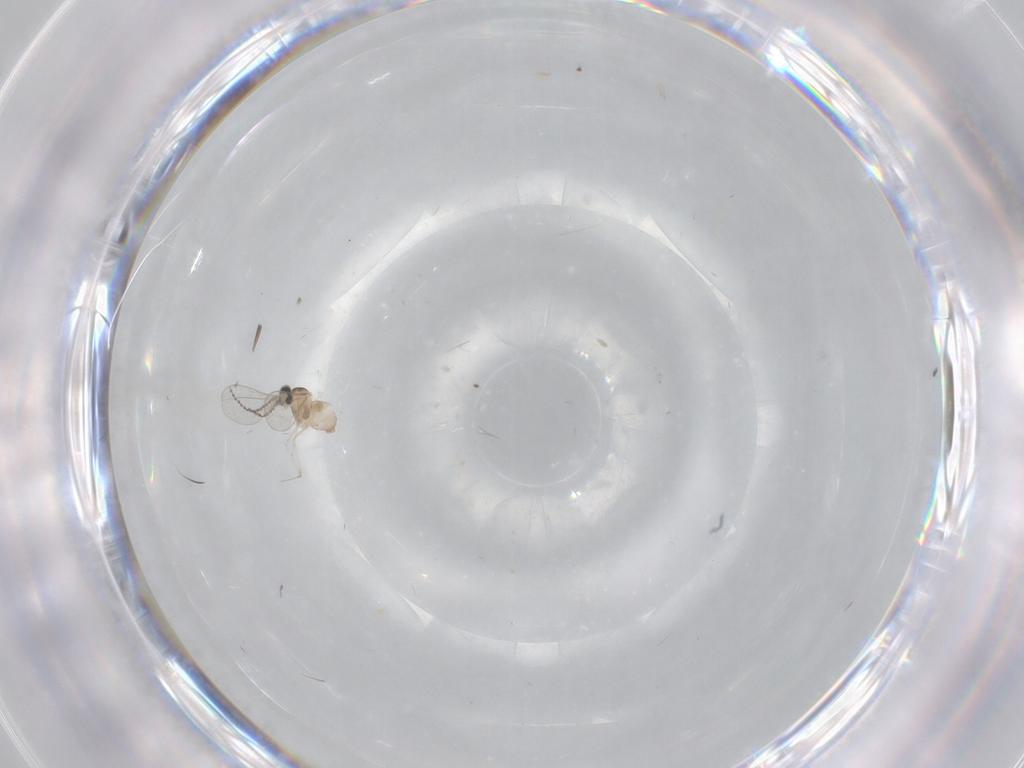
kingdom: Animalia
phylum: Arthropoda
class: Insecta
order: Diptera
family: Cecidomyiidae
